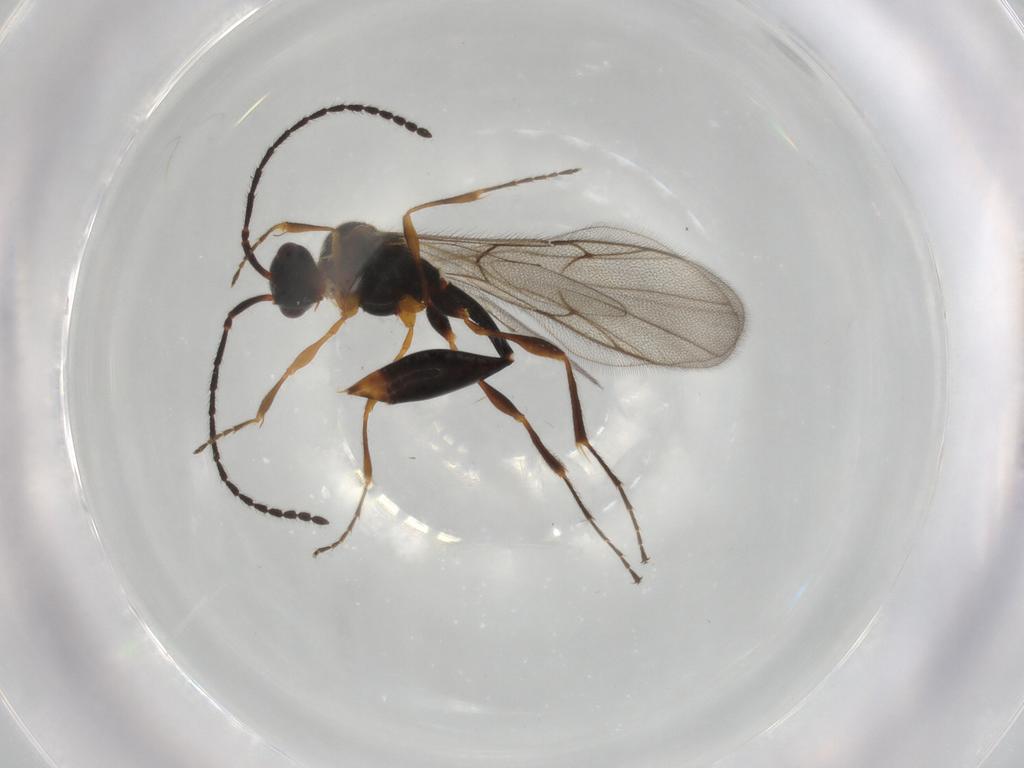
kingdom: Animalia
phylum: Arthropoda
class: Insecta
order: Hymenoptera
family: Diapriidae
